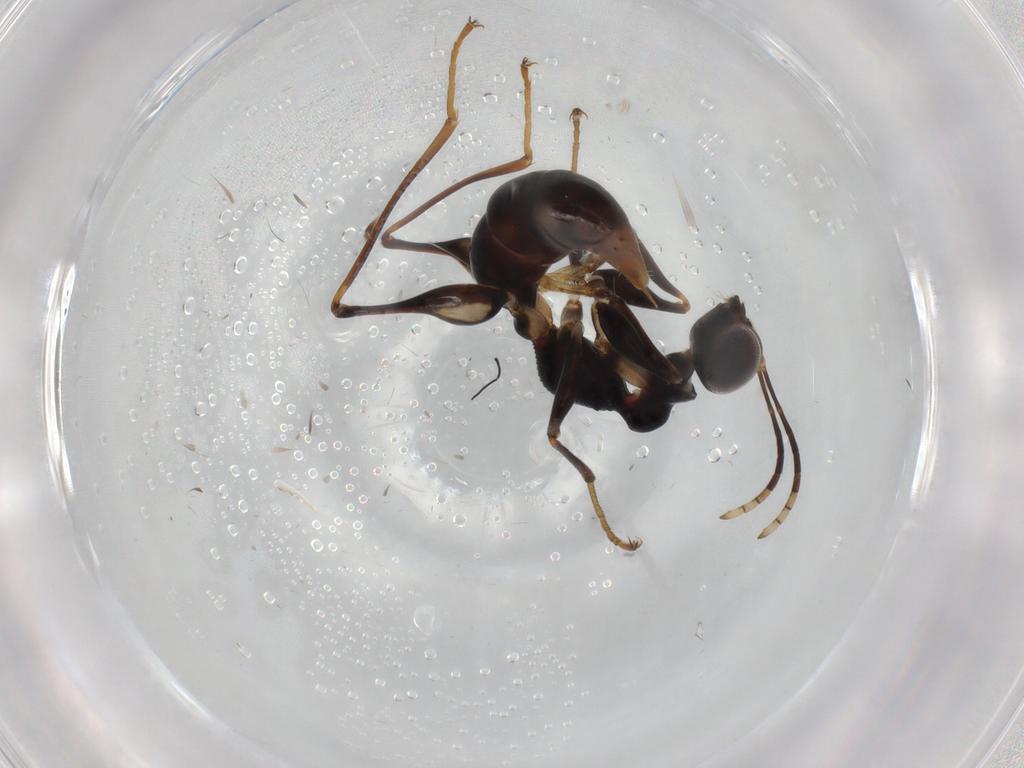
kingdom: Animalia
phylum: Arthropoda
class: Insecta
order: Hymenoptera
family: Dryinidae
